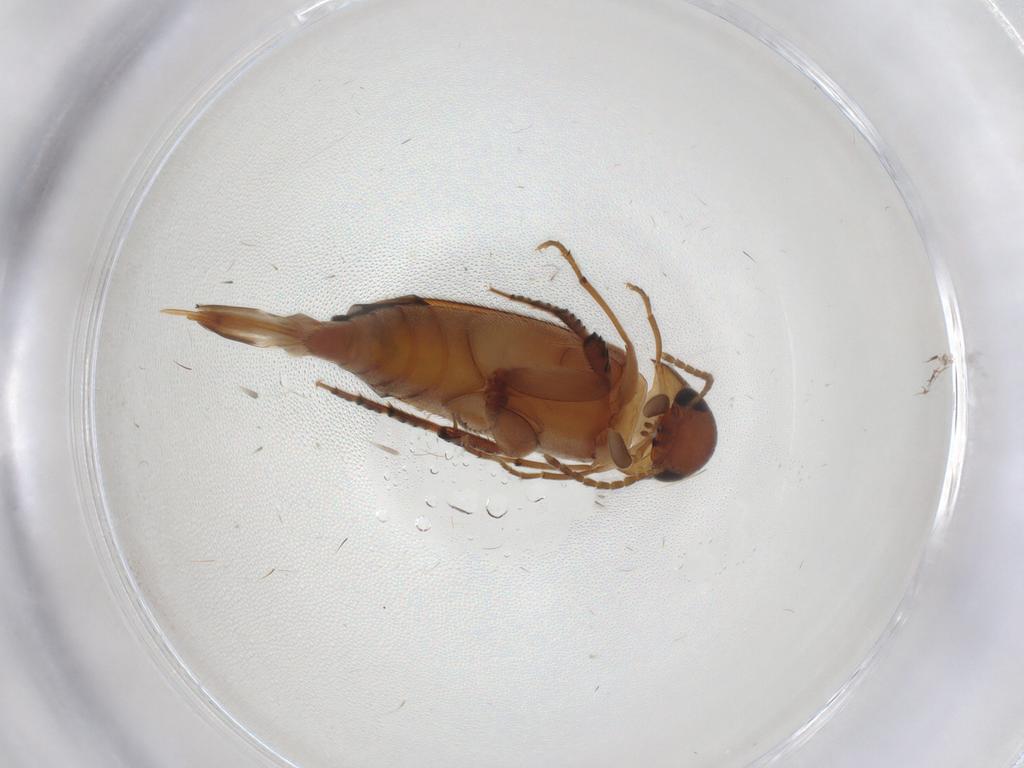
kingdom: Animalia
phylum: Arthropoda
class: Insecta
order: Coleoptera
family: Mordellidae
